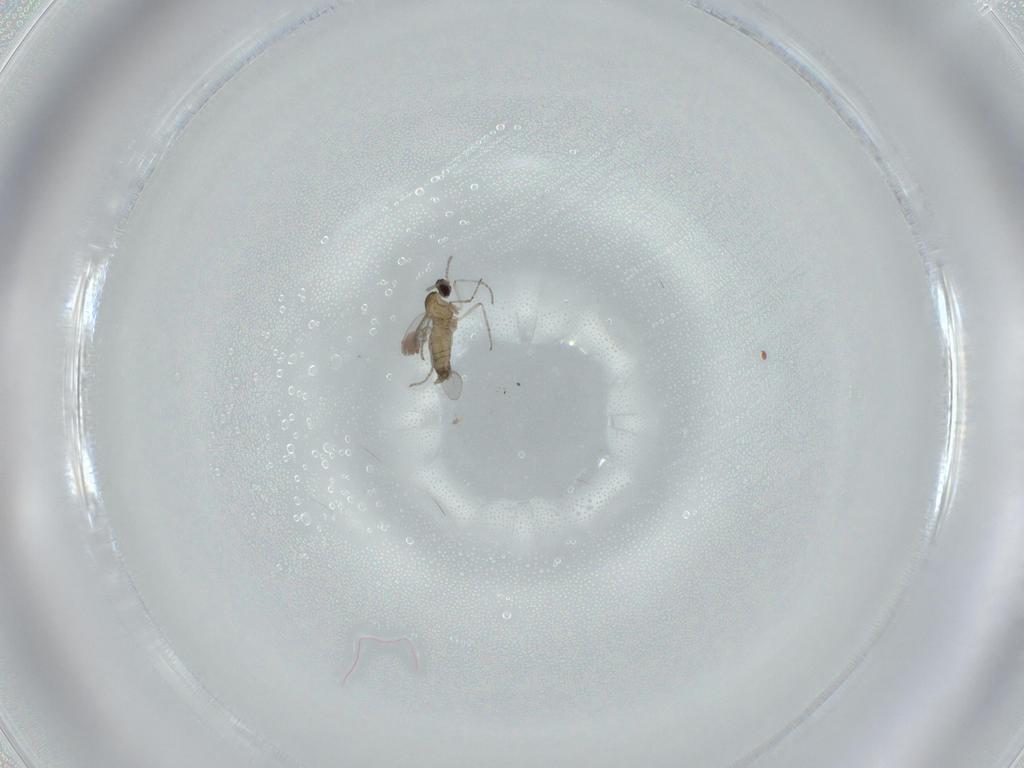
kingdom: Animalia
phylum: Arthropoda
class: Insecta
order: Diptera
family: Cecidomyiidae
